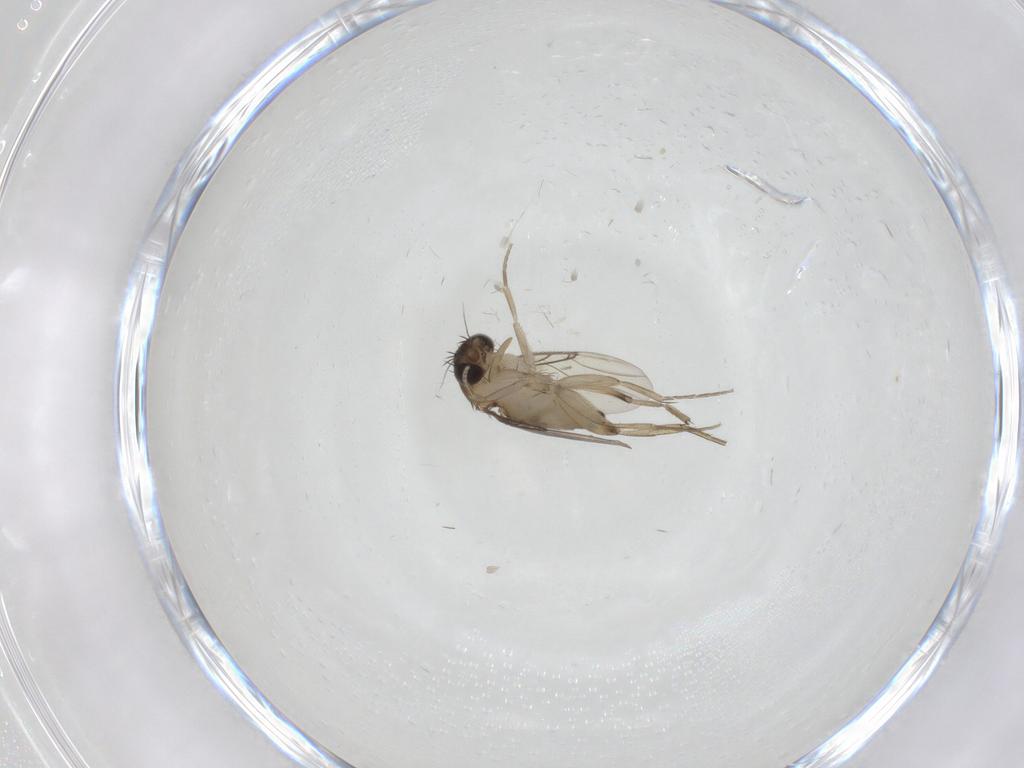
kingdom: Animalia
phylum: Arthropoda
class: Insecta
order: Diptera
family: Phoridae
